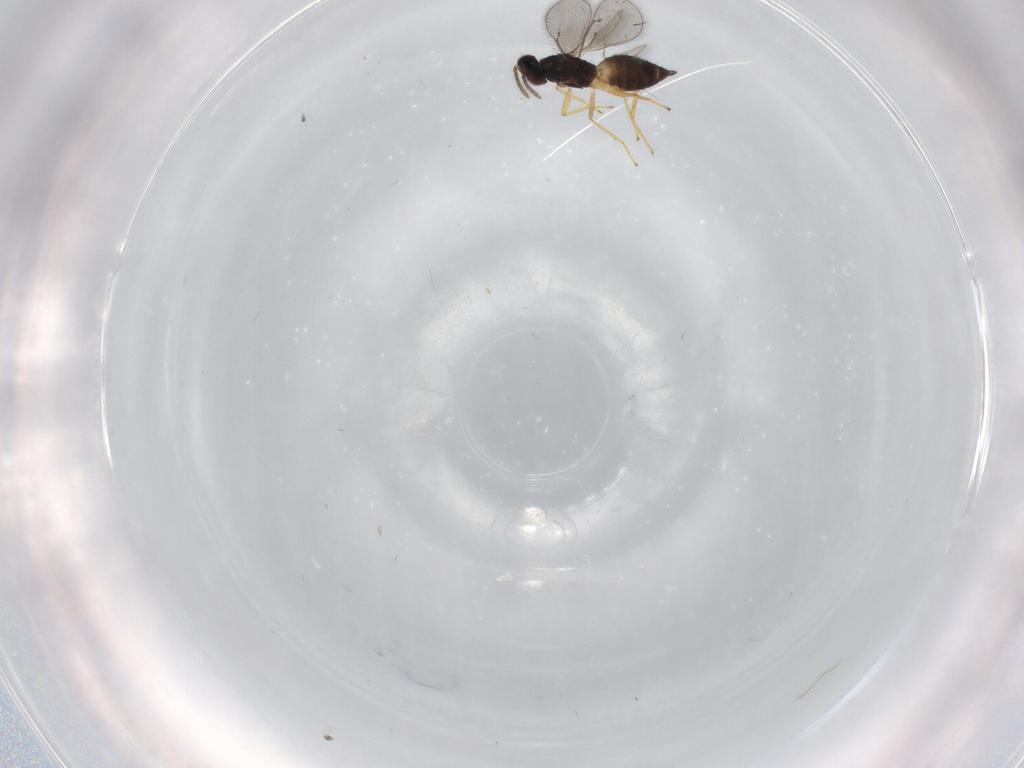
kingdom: Animalia
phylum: Arthropoda
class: Insecta
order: Hymenoptera
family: Eulophidae
